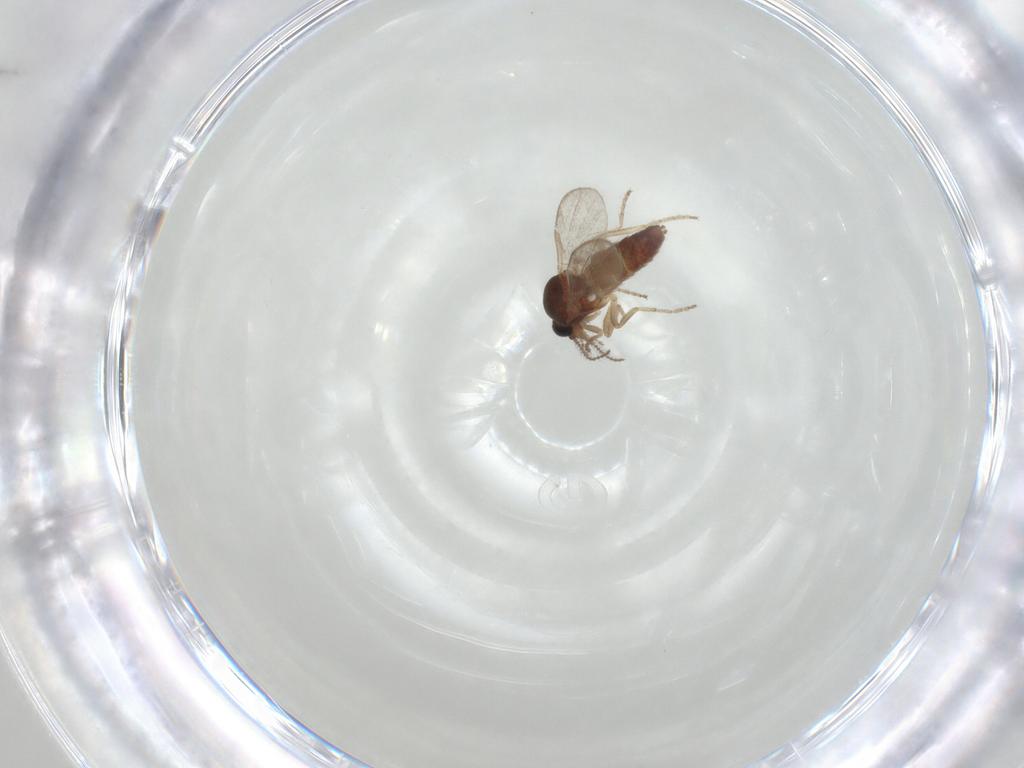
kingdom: Animalia
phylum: Arthropoda
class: Insecta
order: Diptera
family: Ceratopogonidae
